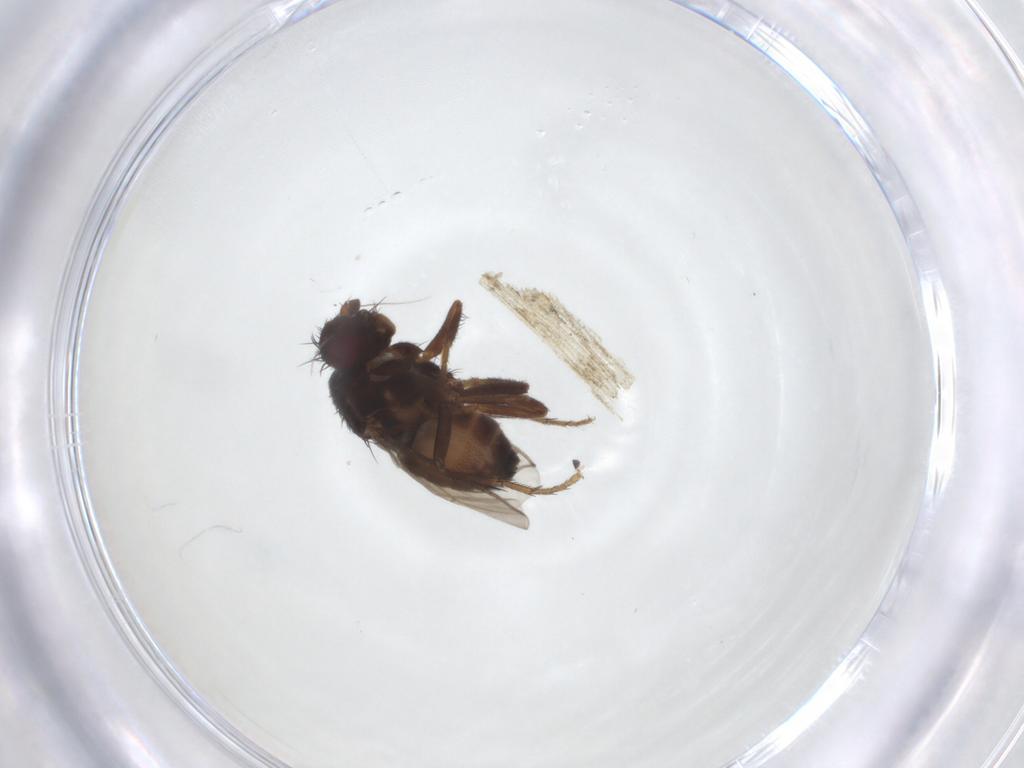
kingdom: Animalia
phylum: Arthropoda
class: Insecta
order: Diptera
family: Sphaeroceridae
